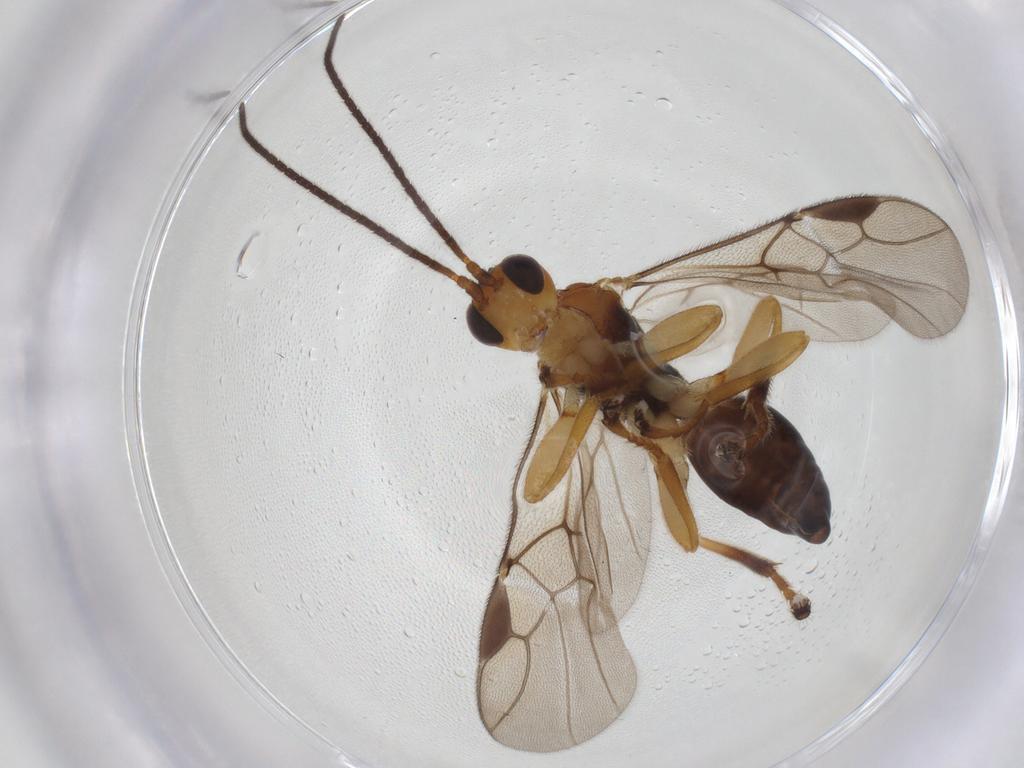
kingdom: Animalia
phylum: Arthropoda
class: Insecta
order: Hymenoptera
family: Braconidae
